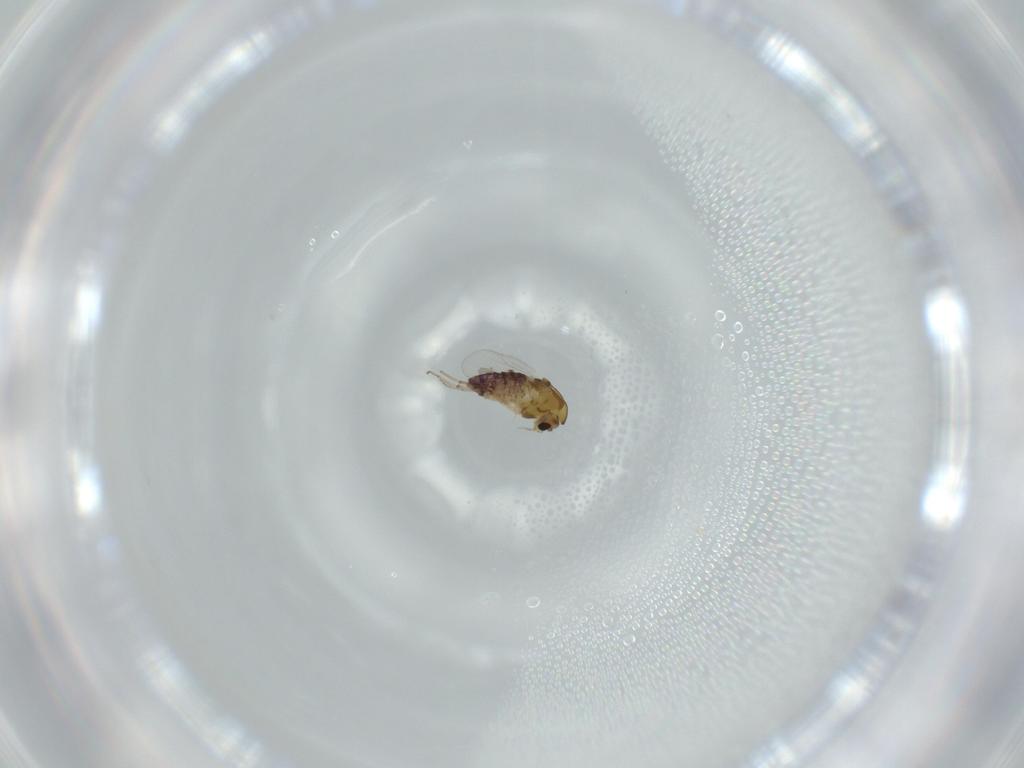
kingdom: Animalia
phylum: Arthropoda
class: Insecta
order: Diptera
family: Chironomidae
